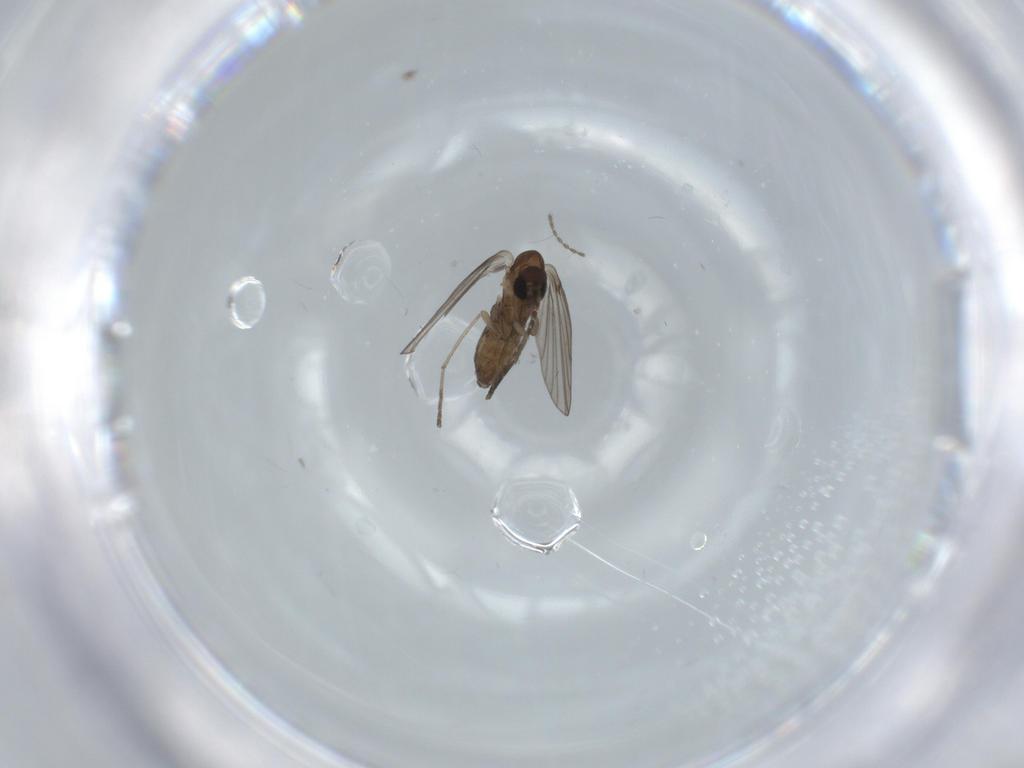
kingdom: Animalia
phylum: Arthropoda
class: Insecta
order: Diptera
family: Psychodidae
